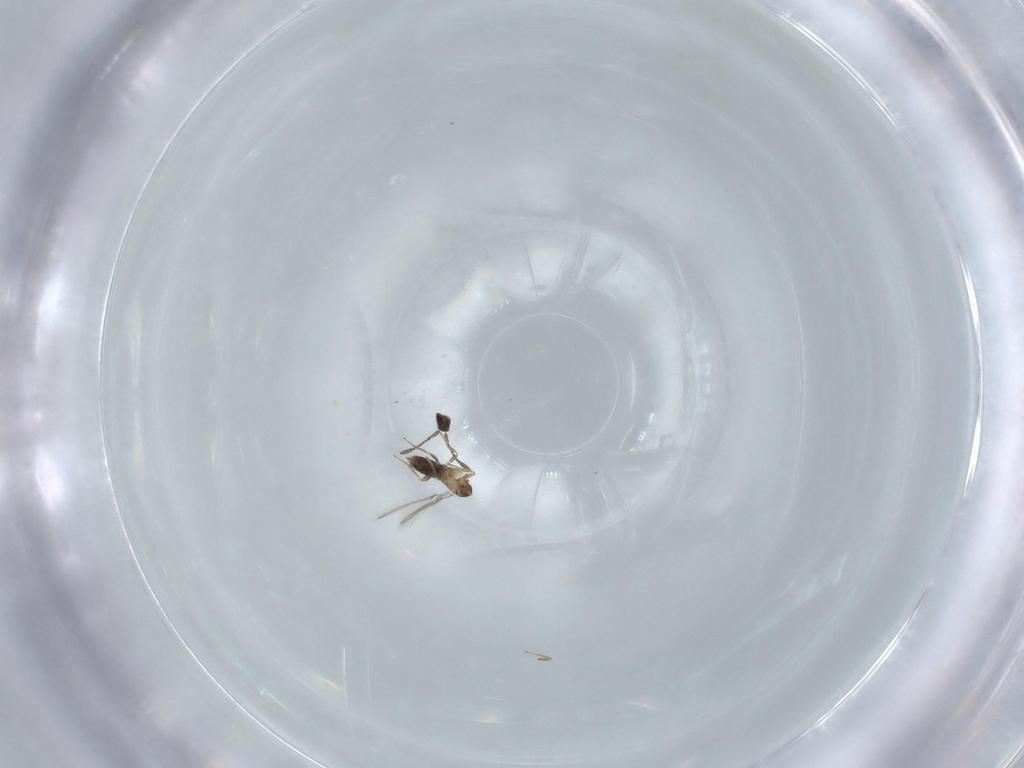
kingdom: Animalia
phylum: Arthropoda
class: Insecta
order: Hymenoptera
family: Mymaridae
